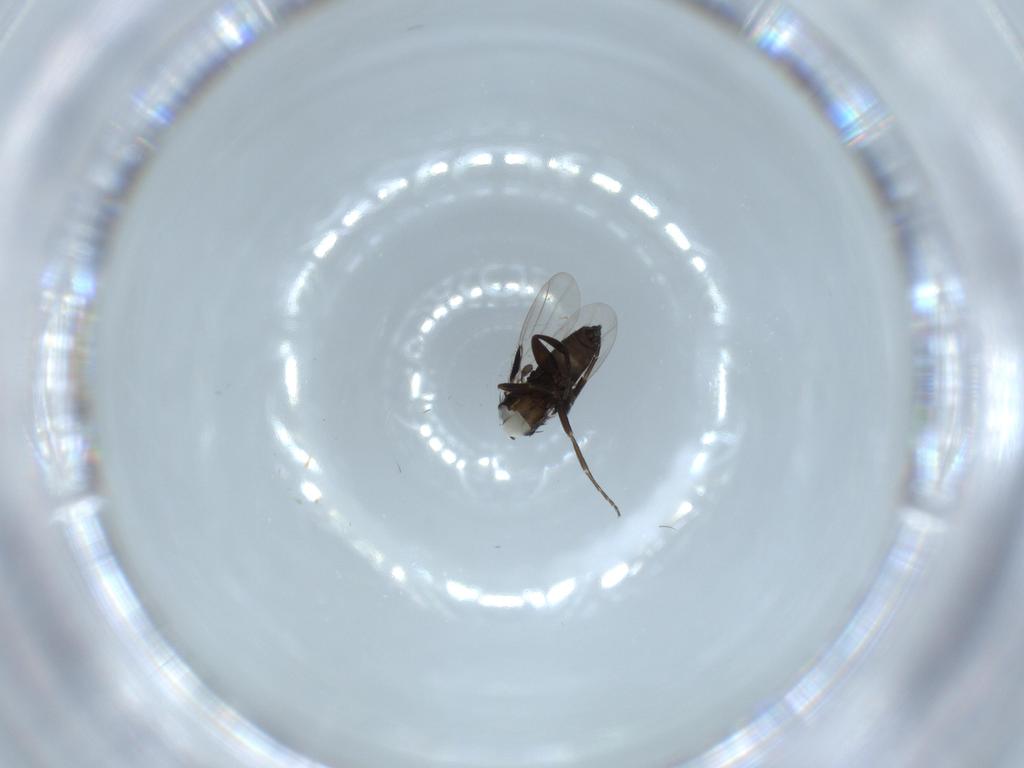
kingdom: Animalia
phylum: Arthropoda
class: Insecta
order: Diptera
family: Phoridae
